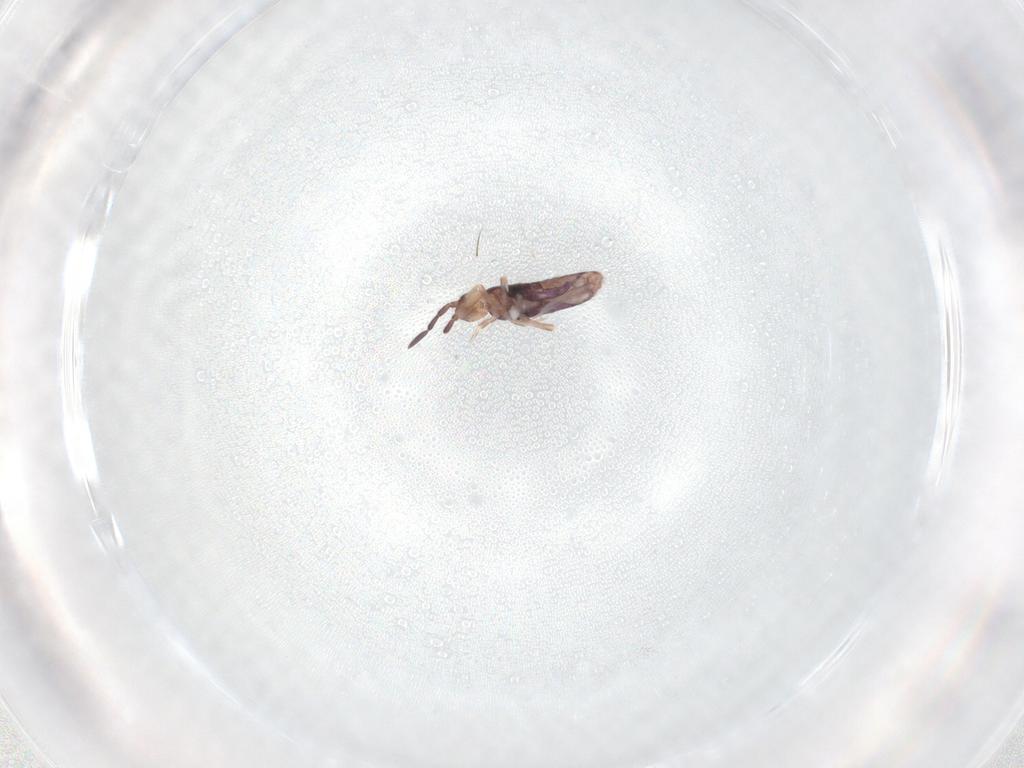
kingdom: Animalia
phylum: Arthropoda
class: Collembola
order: Entomobryomorpha
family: Entomobryidae
